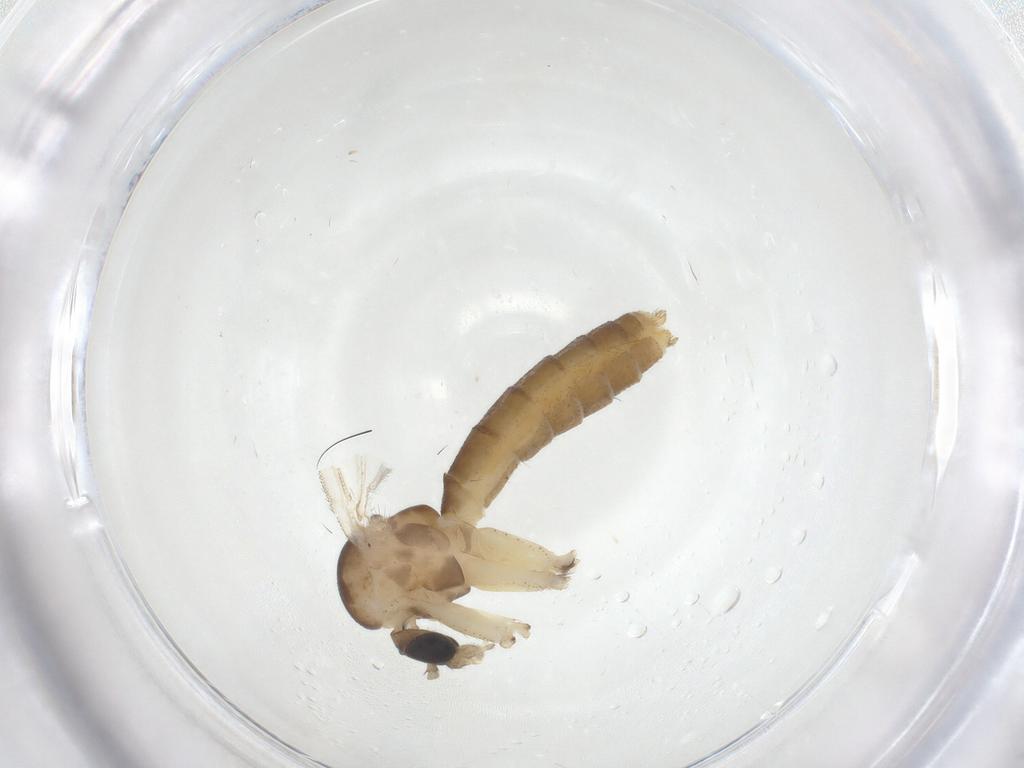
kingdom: Animalia
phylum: Arthropoda
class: Insecta
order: Diptera
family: Mycetophilidae
